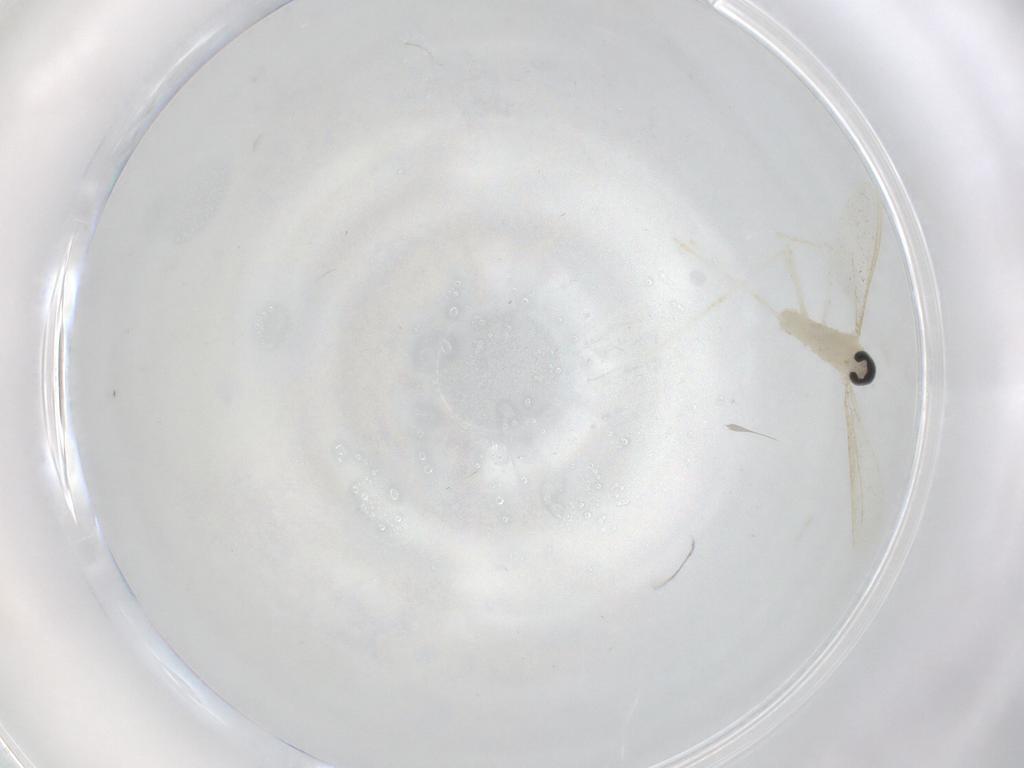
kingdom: Animalia
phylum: Arthropoda
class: Insecta
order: Diptera
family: Cecidomyiidae
